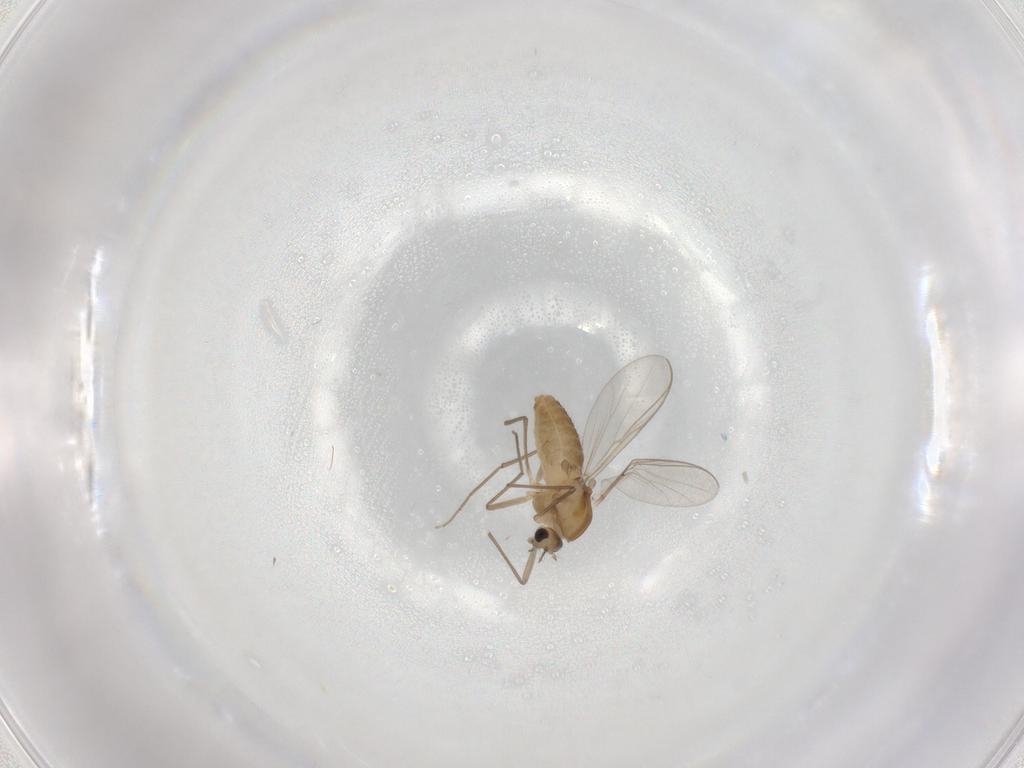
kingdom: Animalia
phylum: Arthropoda
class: Insecta
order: Diptera
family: Chironomidae
